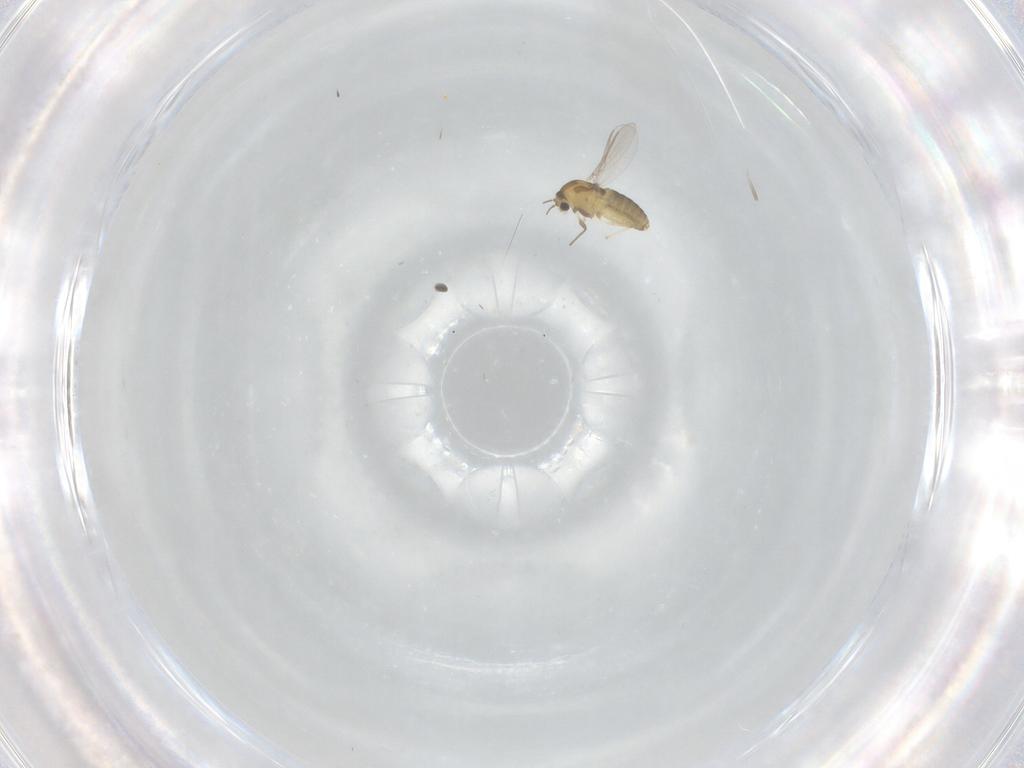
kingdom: Animalia
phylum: Arthropoda
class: Insecta
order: Diptera
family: Chironomidae
